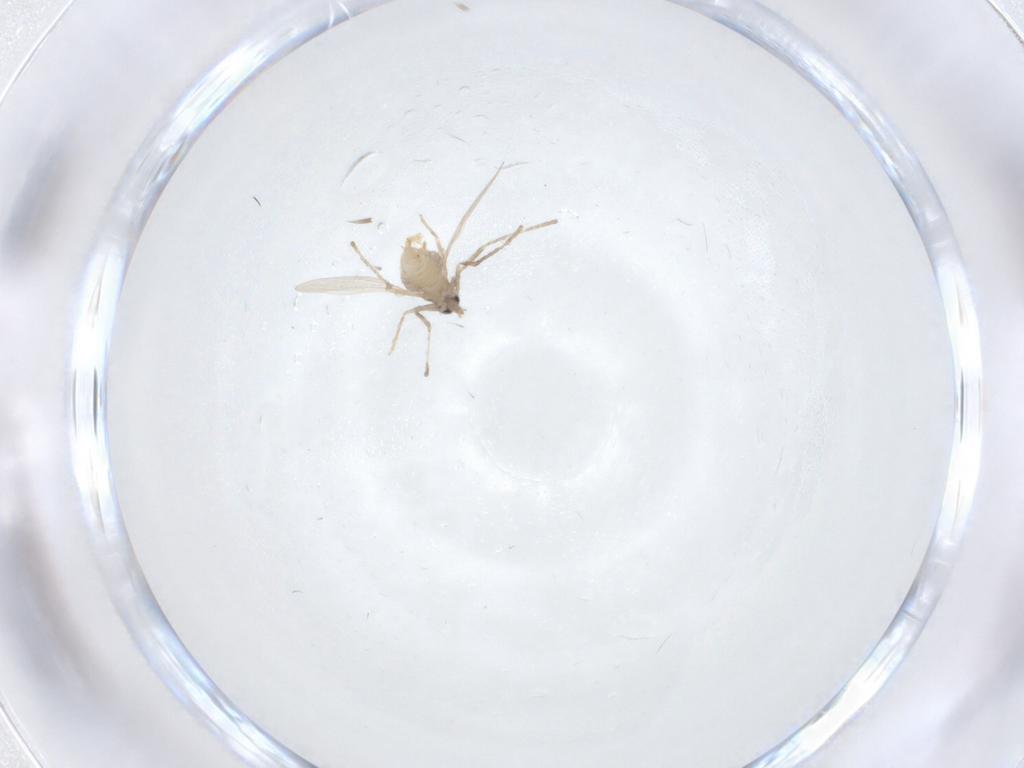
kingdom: Animalia
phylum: Arthropoda
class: Insecta
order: Diptera
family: Cecidomyiidae
